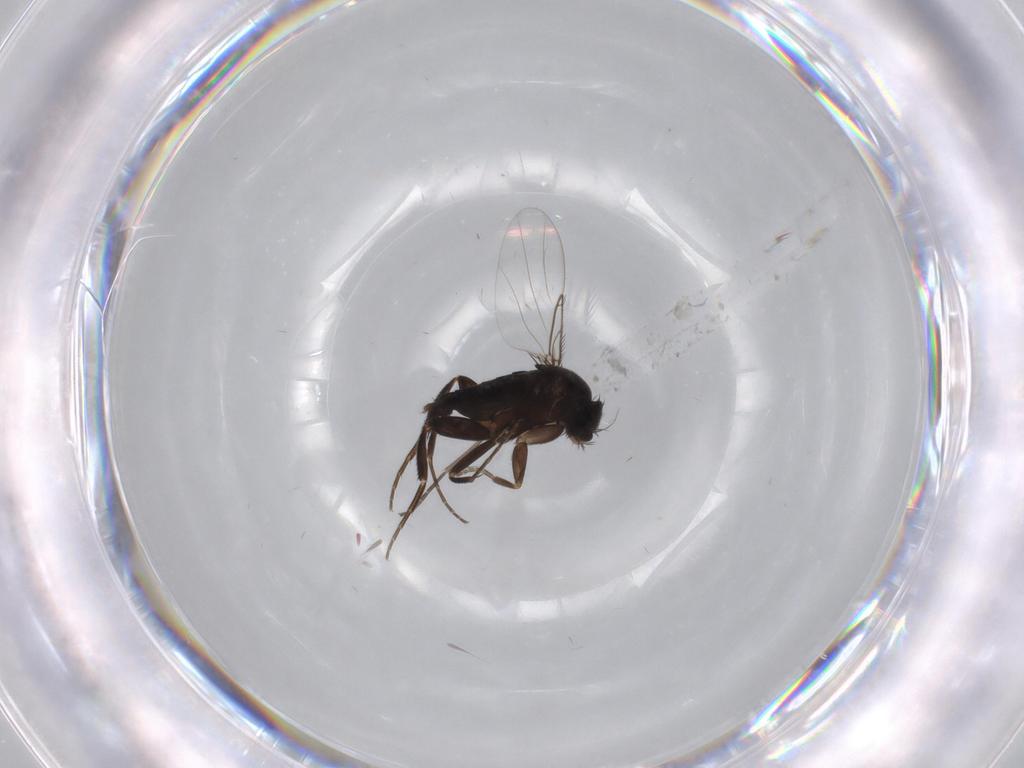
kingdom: Animalia
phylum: Arthropoda
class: Insecta
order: Diptera
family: Phoridae
